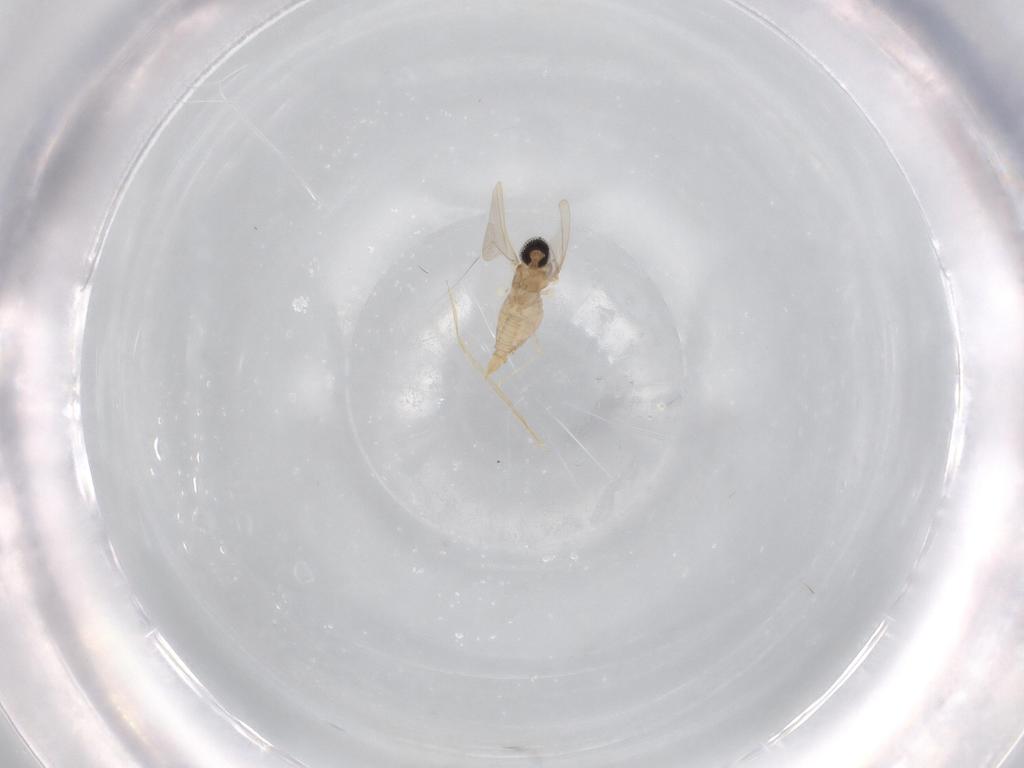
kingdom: Animalia
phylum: Arthropoda
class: Insecta
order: Diptera
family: Cecidomyiidae
